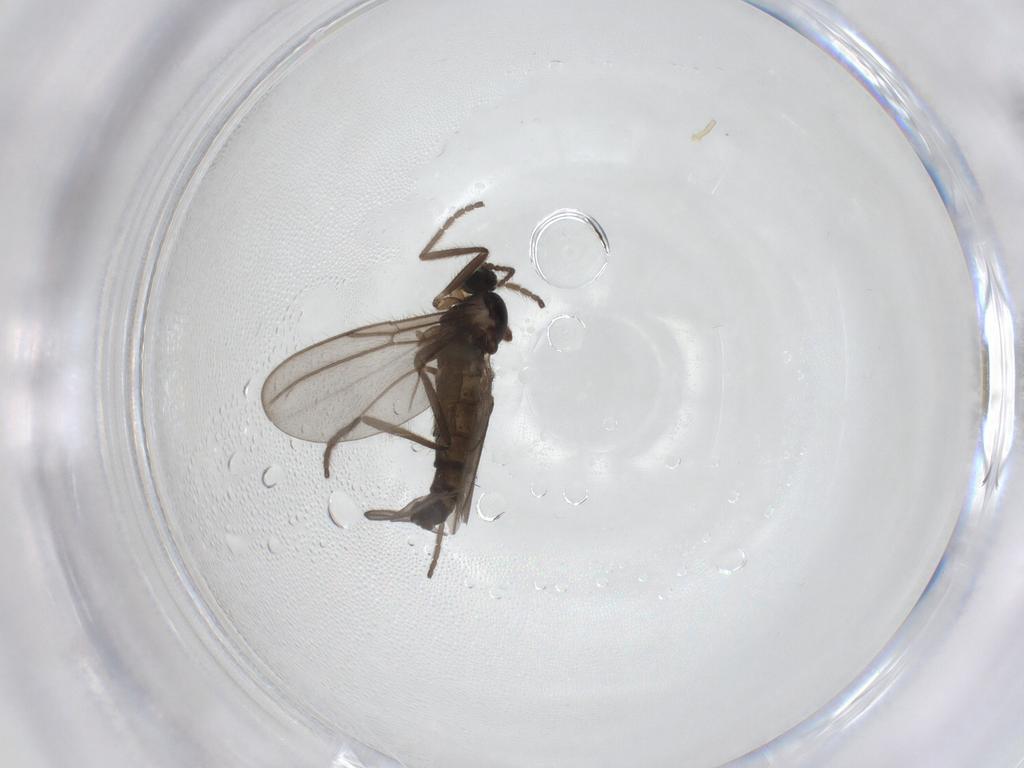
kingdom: Animalia
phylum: Arthropoda
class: Insecta
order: Diptera
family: Cecidomyiidae
